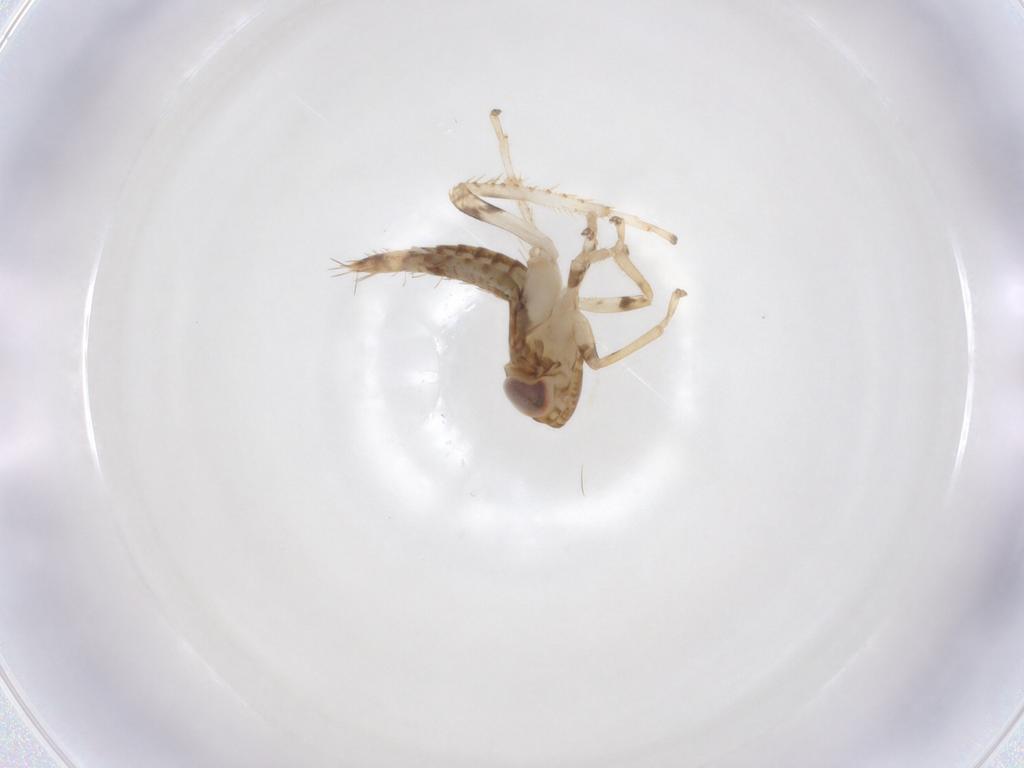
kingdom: Animalia
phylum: Arthropoda
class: Insecta
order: Hemiptera
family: Cicadellidae
